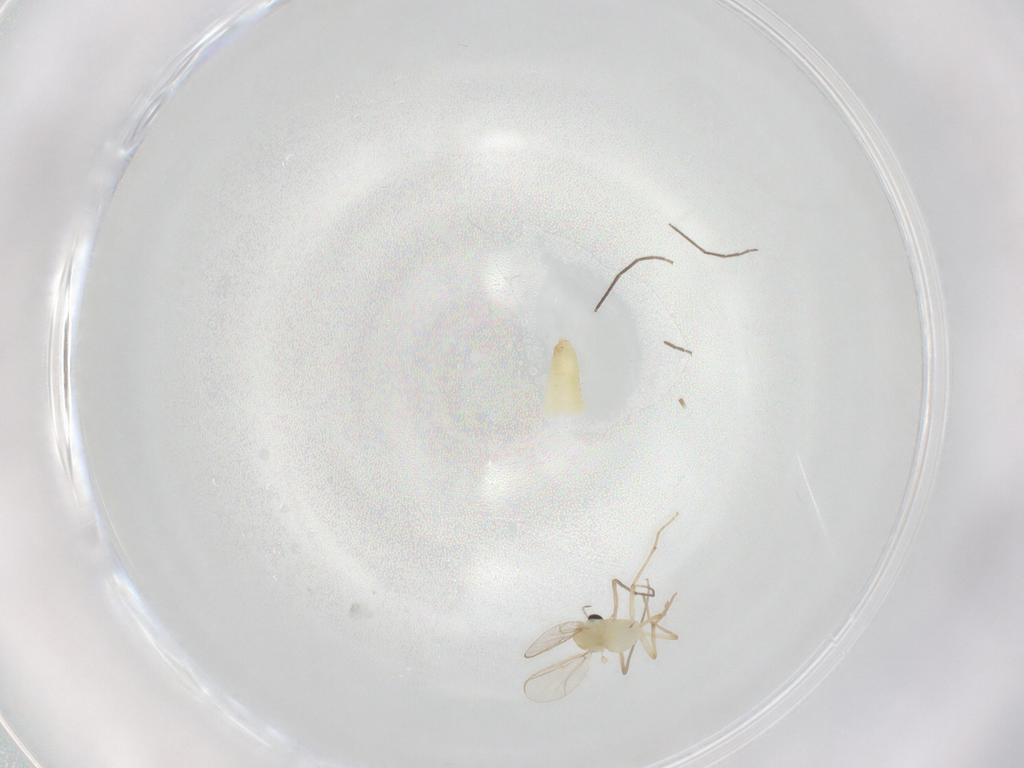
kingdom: Animalia
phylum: Arthropoda
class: Insecta
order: Diptera
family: Chironomidae
